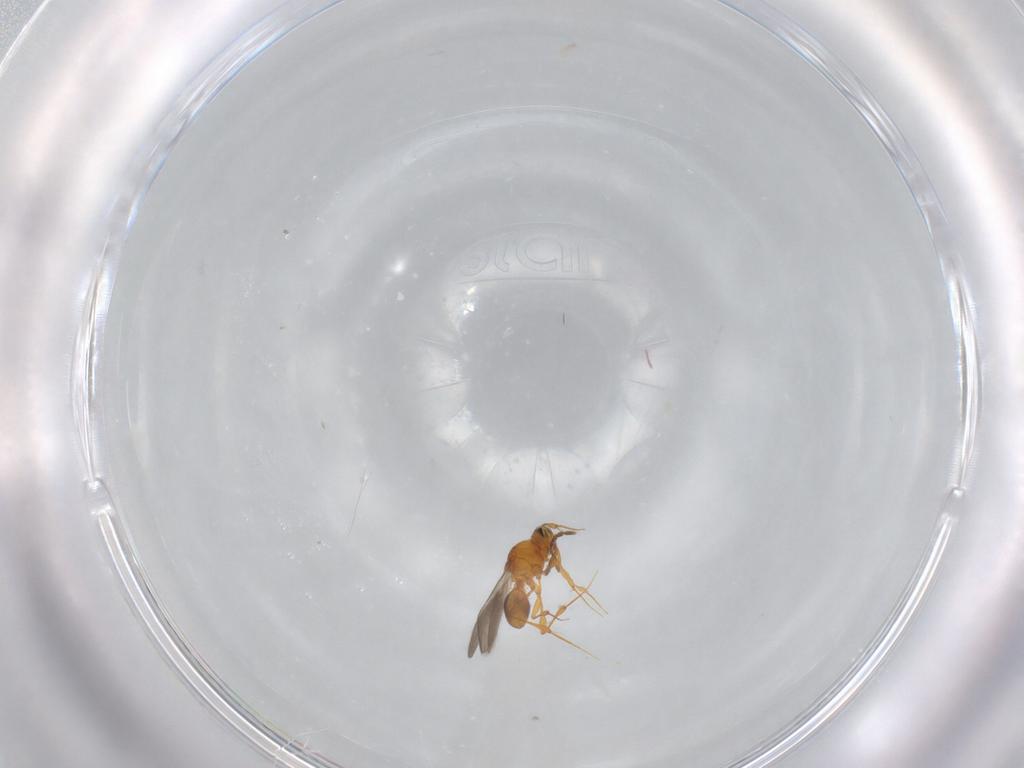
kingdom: Animalia
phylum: Arthropoda
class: Insecta
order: Hymenoptera
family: Platygastridae
